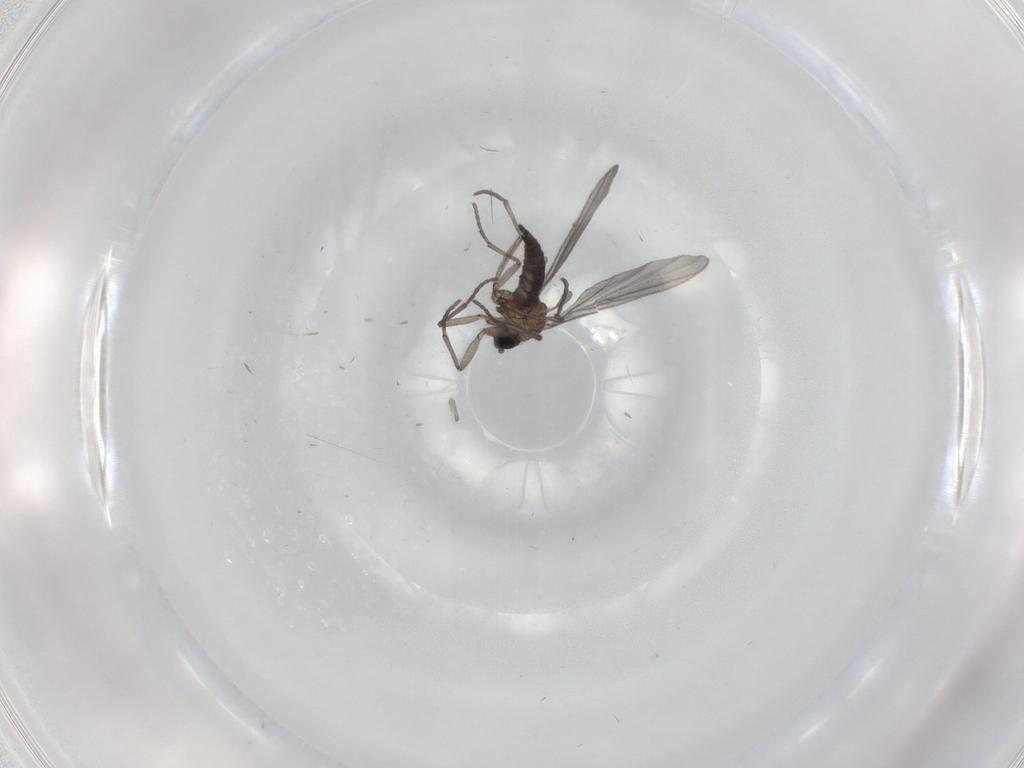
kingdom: Animalia
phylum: Arthropoda
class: Insecta
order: Diptera
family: Sciaridae
